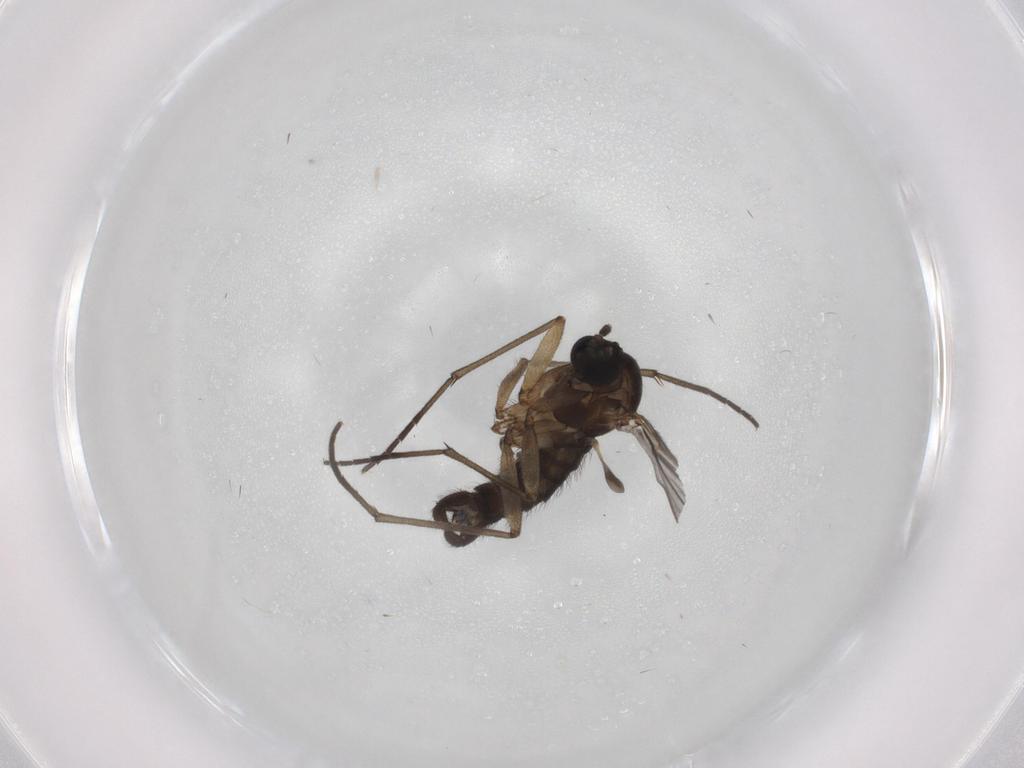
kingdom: Animalia
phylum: Arthropoda
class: Insecta
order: Diptera
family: Sciaridae
